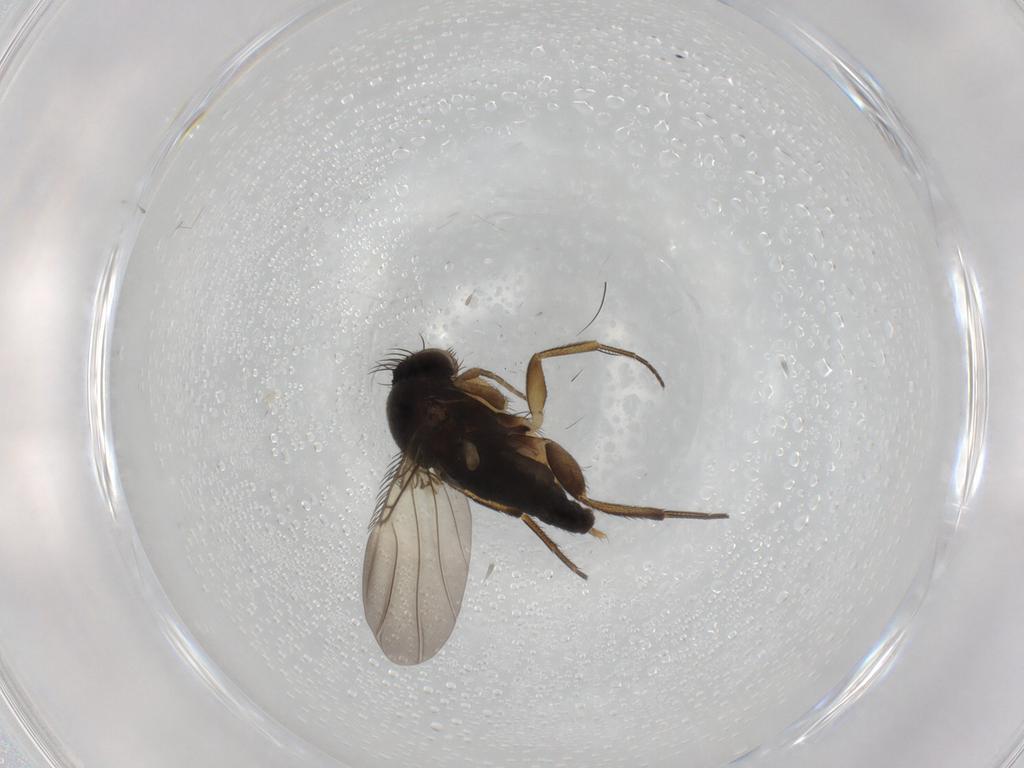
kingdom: Animalia
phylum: Arthropoda
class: Insecta
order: Diptera
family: Phoridae
